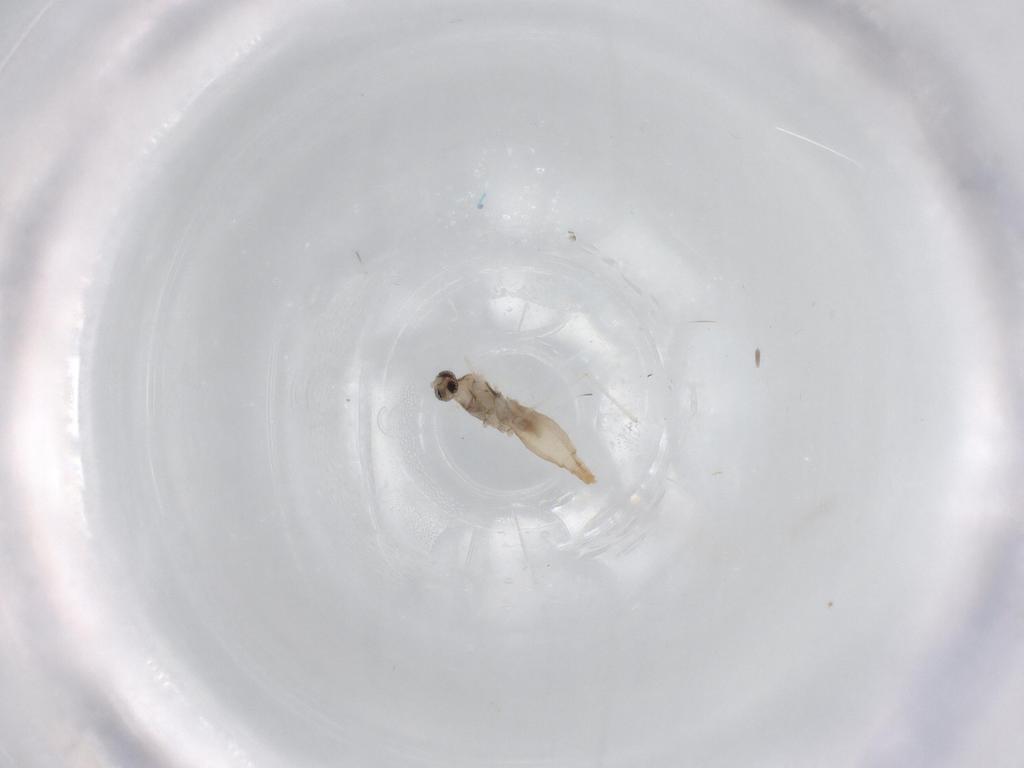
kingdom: Animalia
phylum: Arthropoda
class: Insecta
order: Diptera
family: Cecidomyiidae
